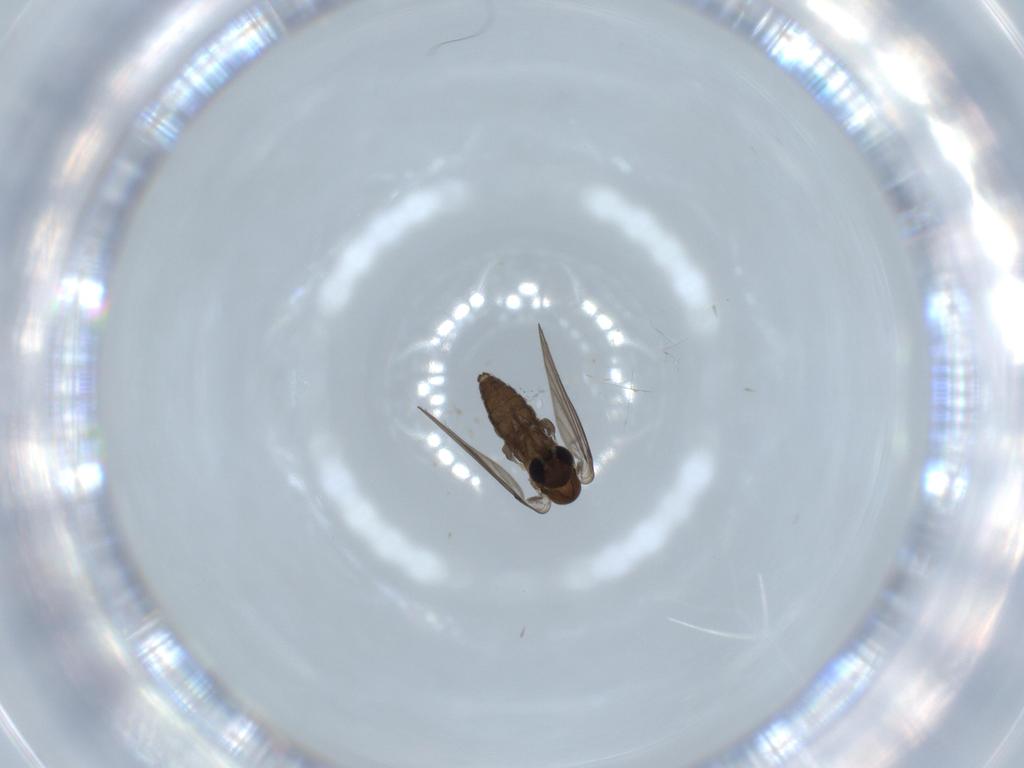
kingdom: Animalia
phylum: Arthropoda
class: Insecta
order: Diptera
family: Psychodidae
